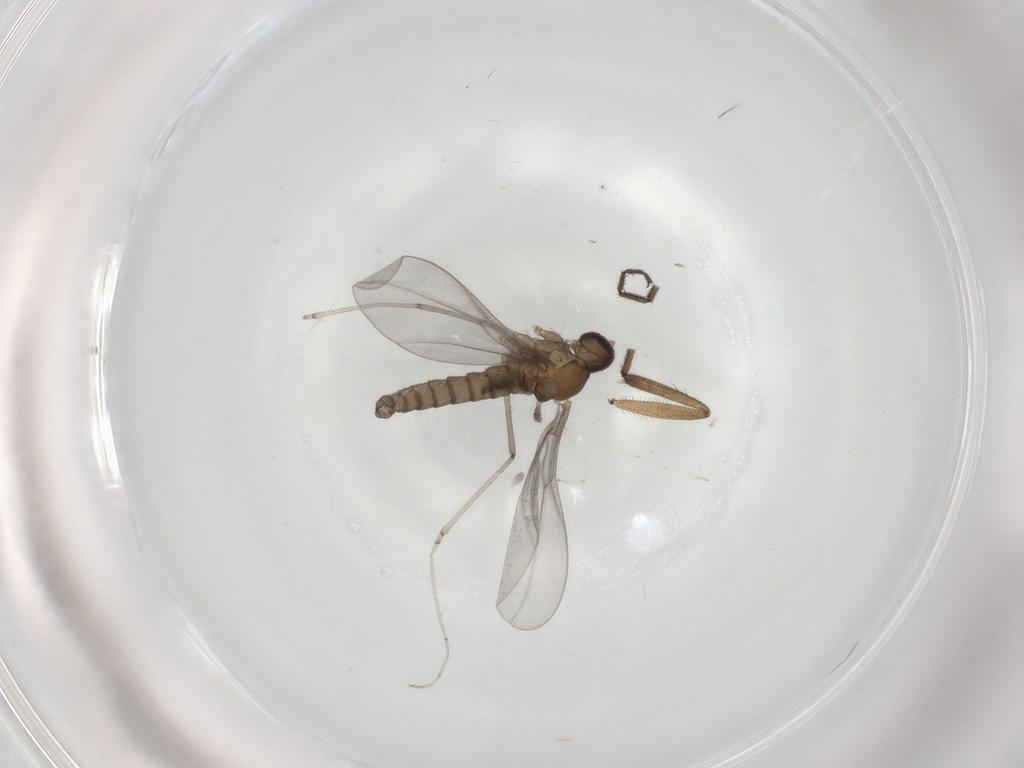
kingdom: Animalia
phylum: Arthropoda
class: Insecta
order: Diptera
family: Cecidomyiidae
